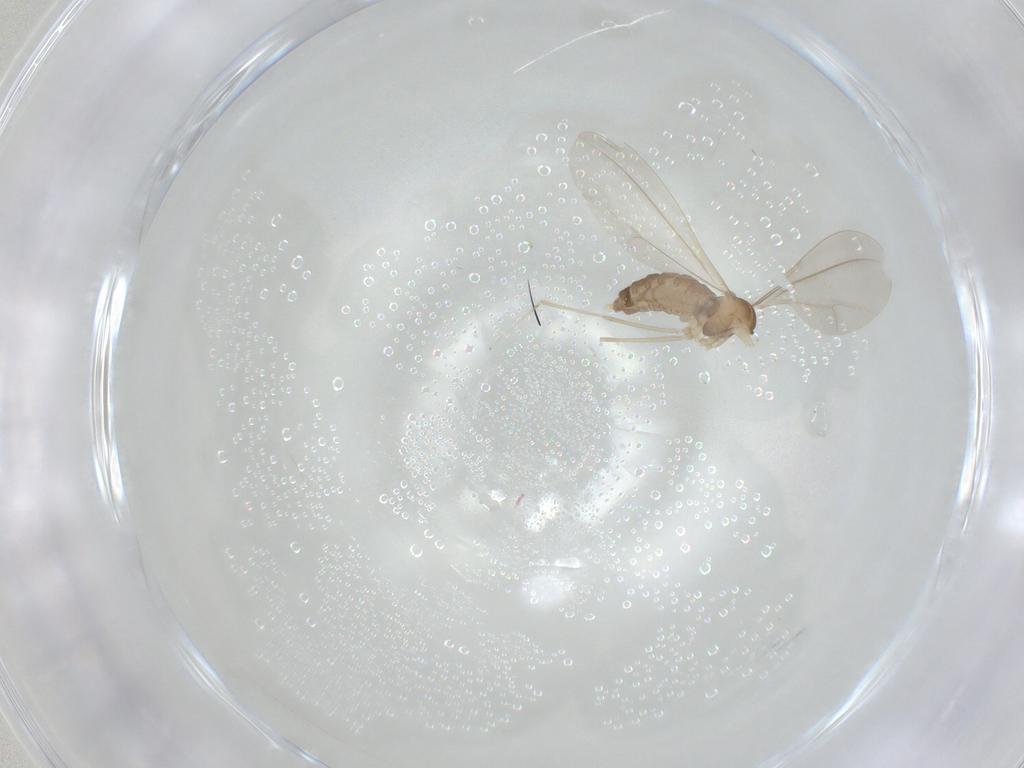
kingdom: Animalia
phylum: Arthropoda
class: Insecta
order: Diptera
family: Cecidomyiidae
